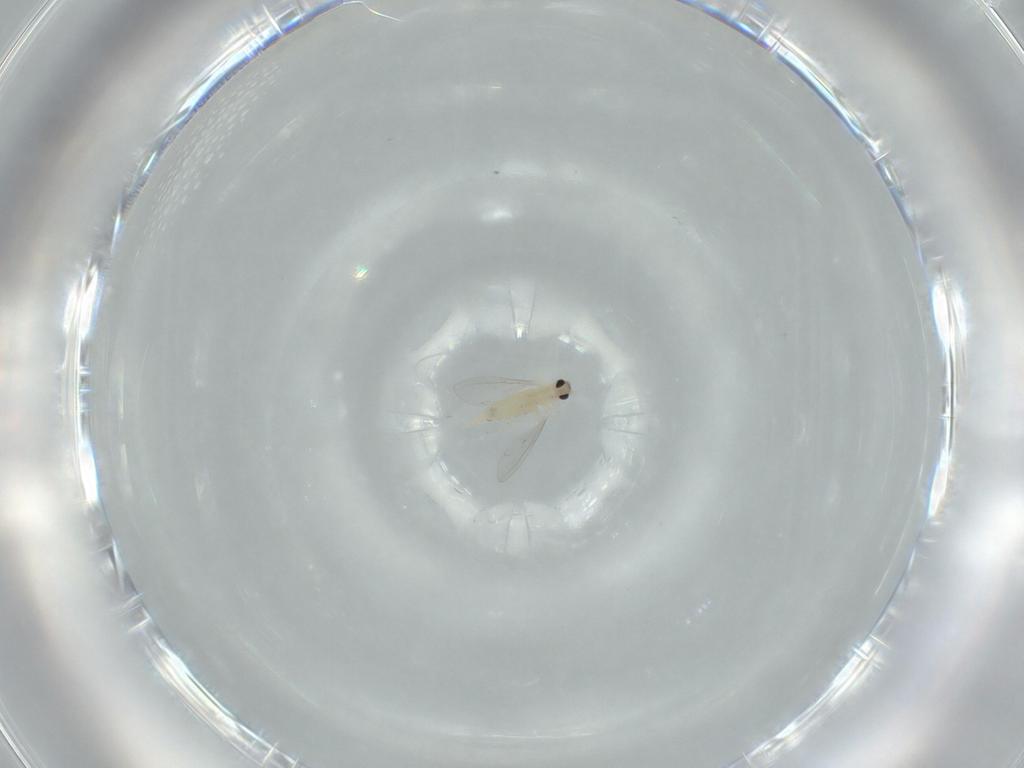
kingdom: Animalia
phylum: Arthropoda
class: Insecta
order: Diptera
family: Cecidomyiidae
